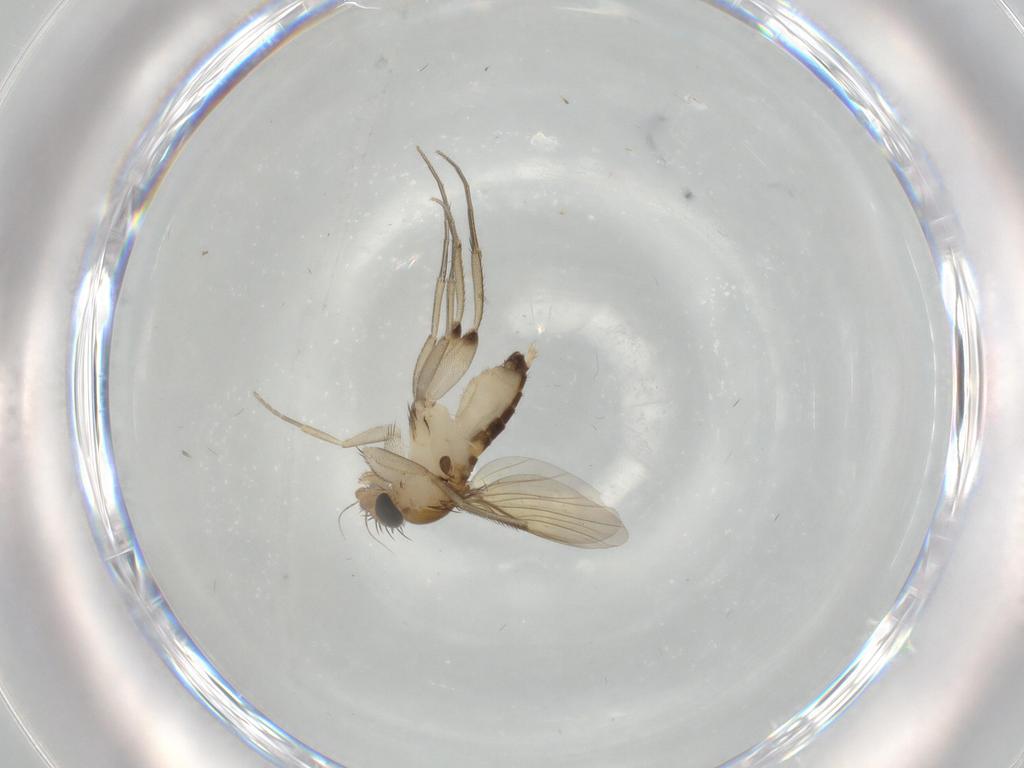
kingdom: Animalia
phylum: Arthropoda
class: Insecta
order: Diptera
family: Phoridae
